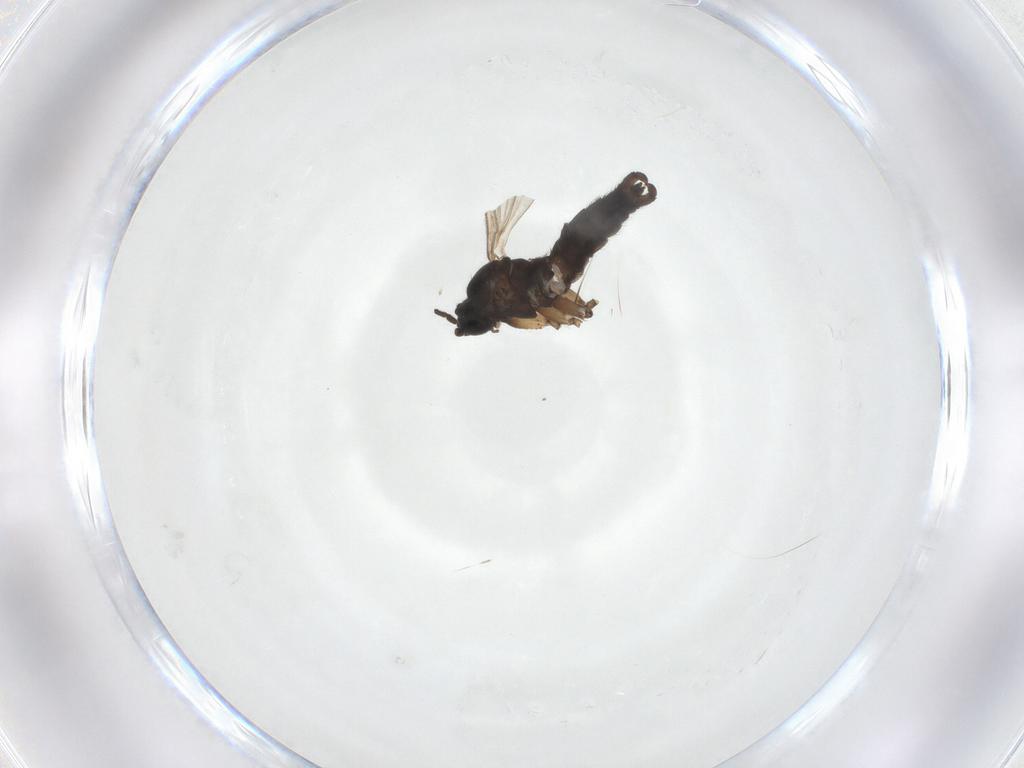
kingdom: Animalia
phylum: Arthropoda
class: Insecta
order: Diptera
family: Sciaridae
